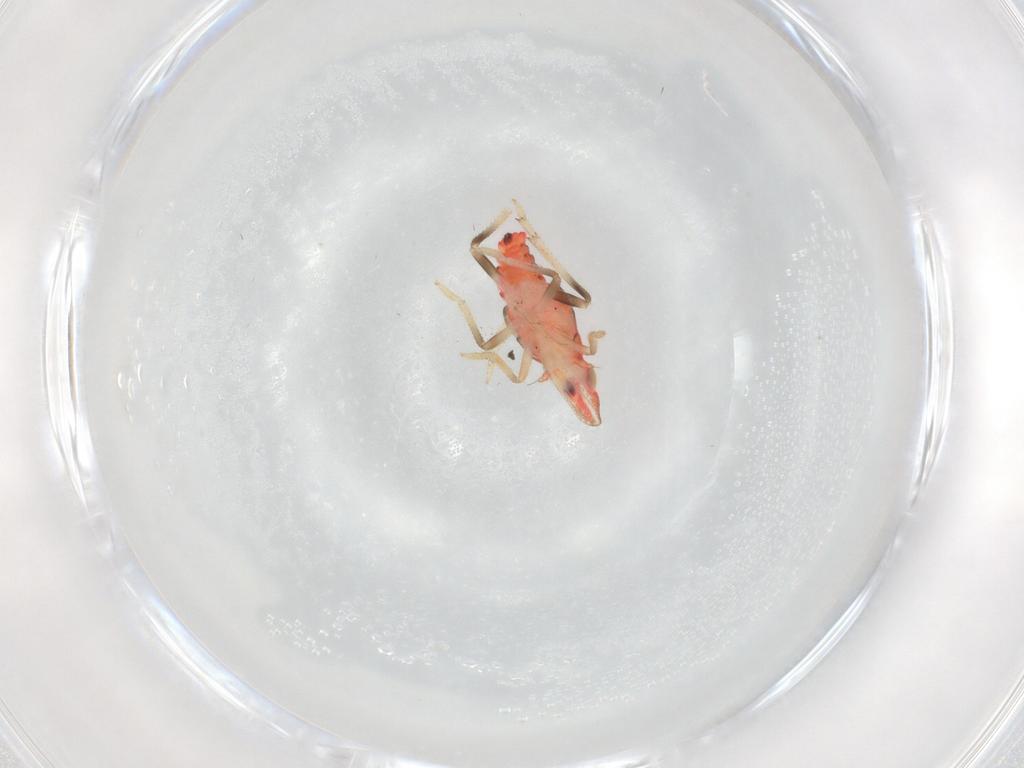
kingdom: Animalia
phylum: Arthropoda
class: Insecta
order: Hemiptera
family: Tropiduchidae
